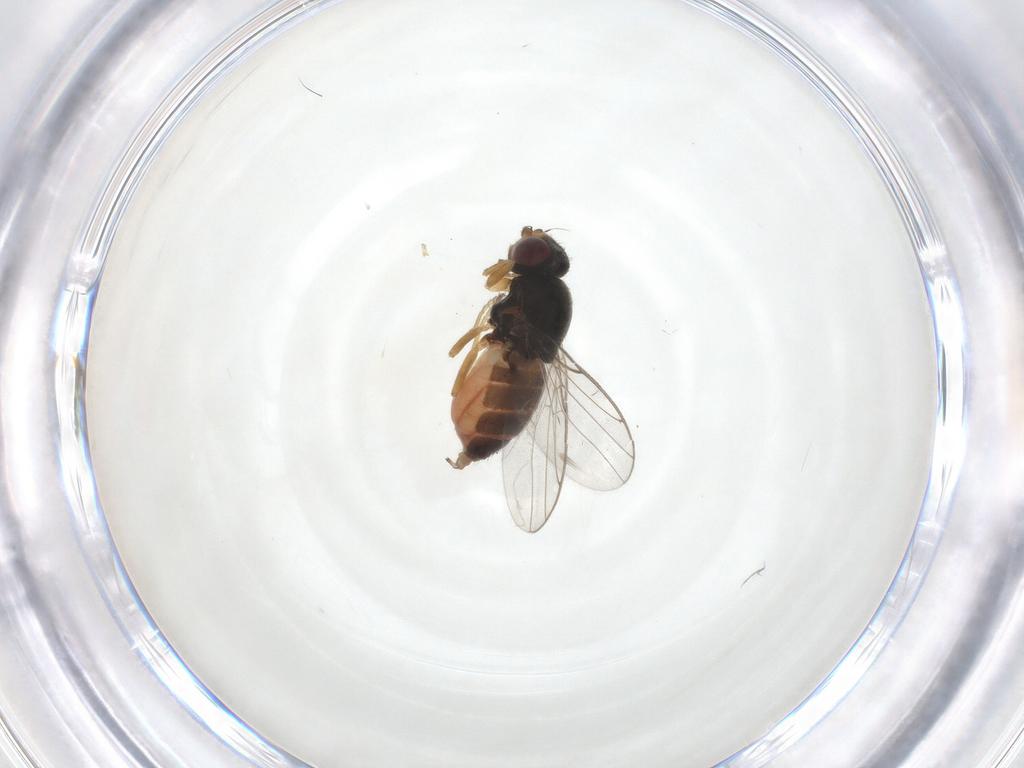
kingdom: Animalia
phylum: Arthropoda
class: Insecta
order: Diptera
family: Chloropidae
